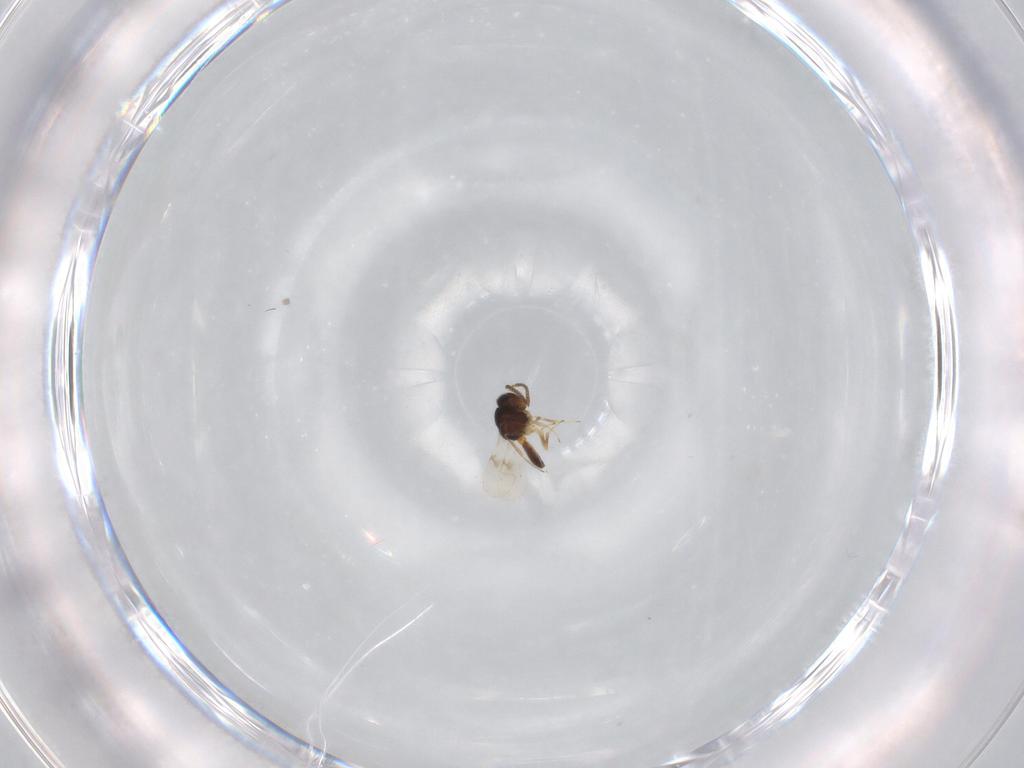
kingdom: Animalia
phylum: Arthropoda
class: Insecta
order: Hymenoptera
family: Scelionidae
